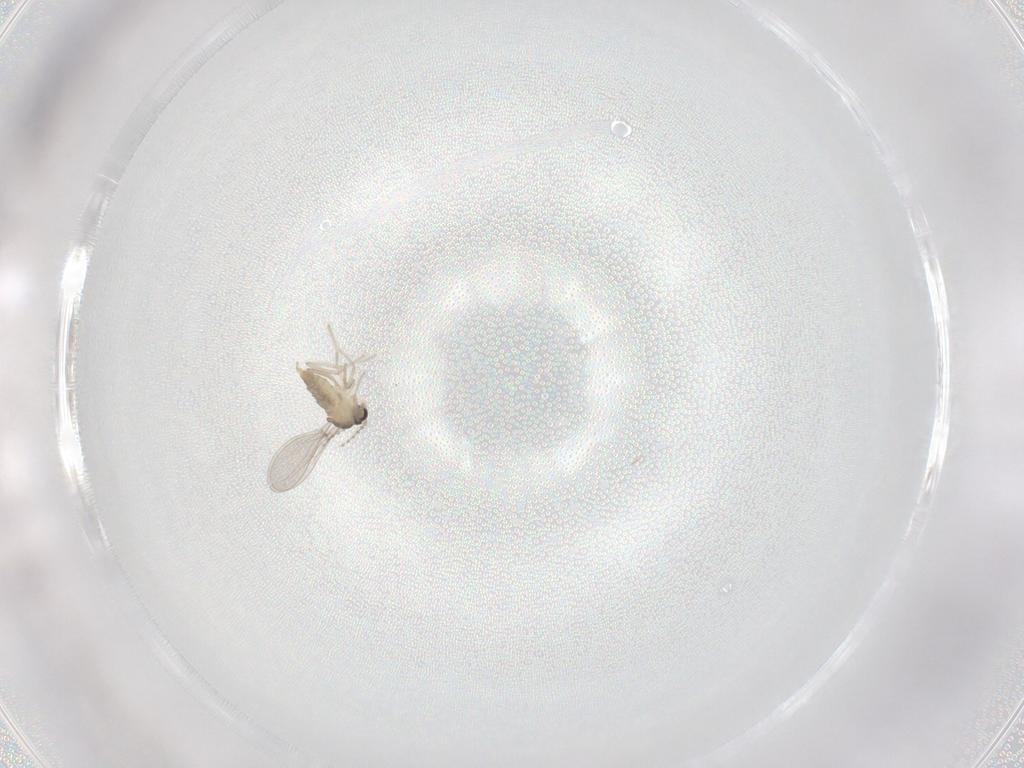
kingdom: Animalia
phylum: Arthropoda
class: Insecta
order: Diptera
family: Cecidomyiidae
